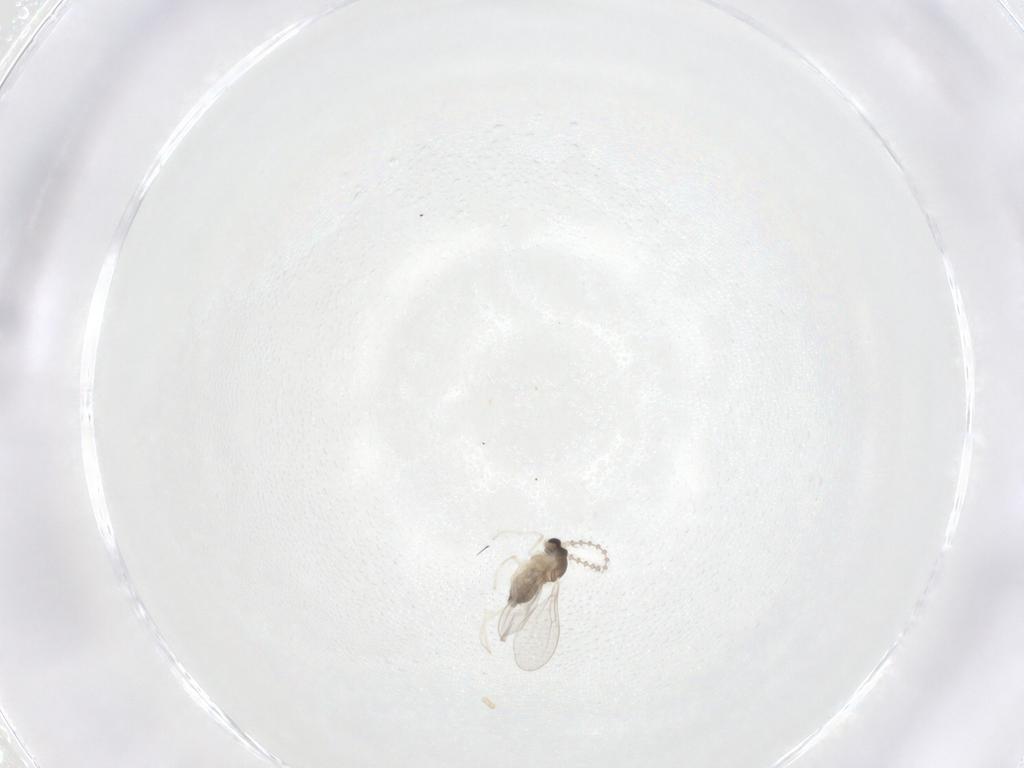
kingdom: Animalia
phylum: Arthropoda
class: Insecta
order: Diptera
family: Cecidomyiidae
